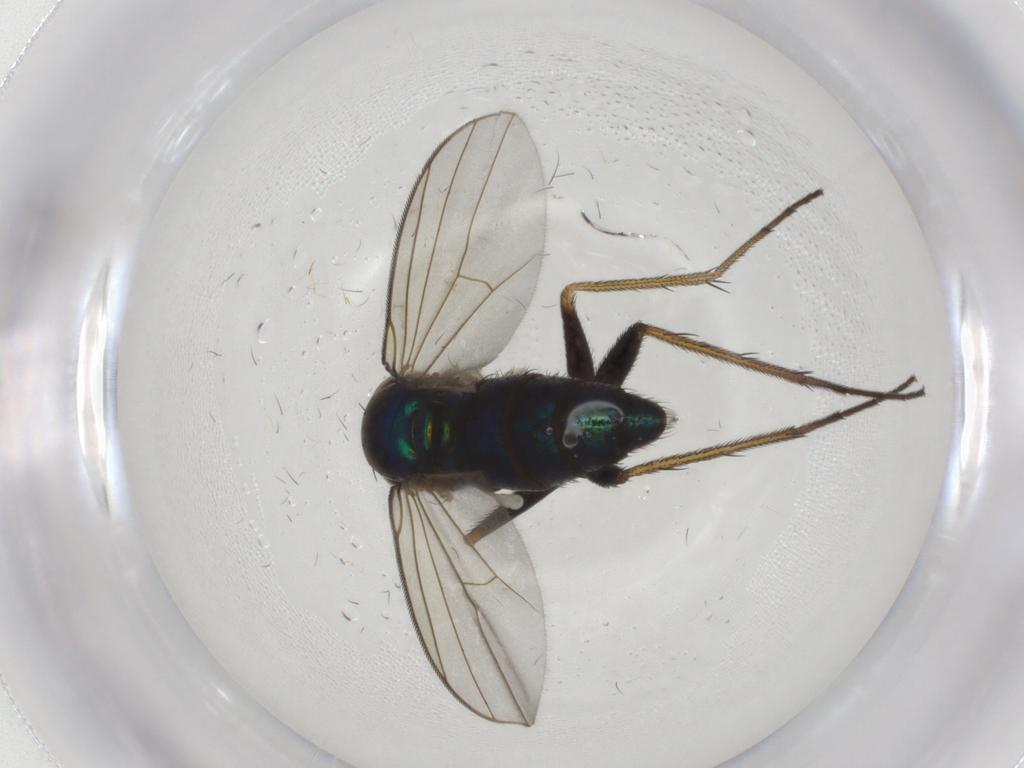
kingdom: Animalia
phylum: Arthropoda
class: Insecta
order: Diptera
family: Dolichopodidae
